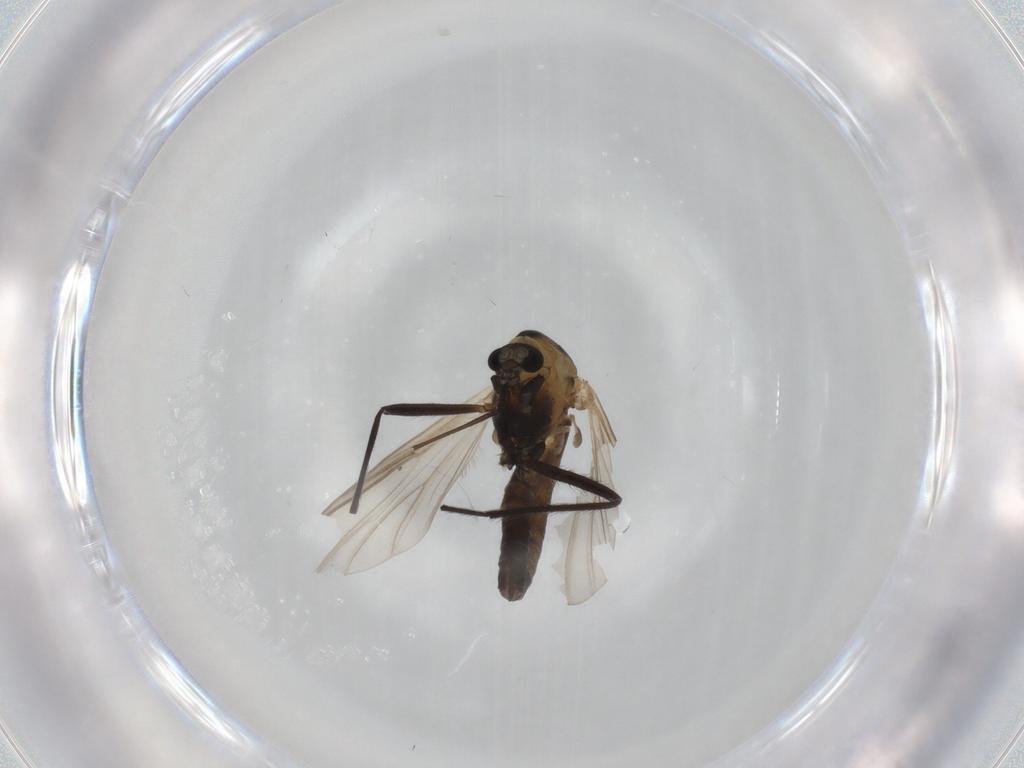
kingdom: Animalia
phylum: Arthropoda
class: Insecta
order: Diptera
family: Chironomidae
